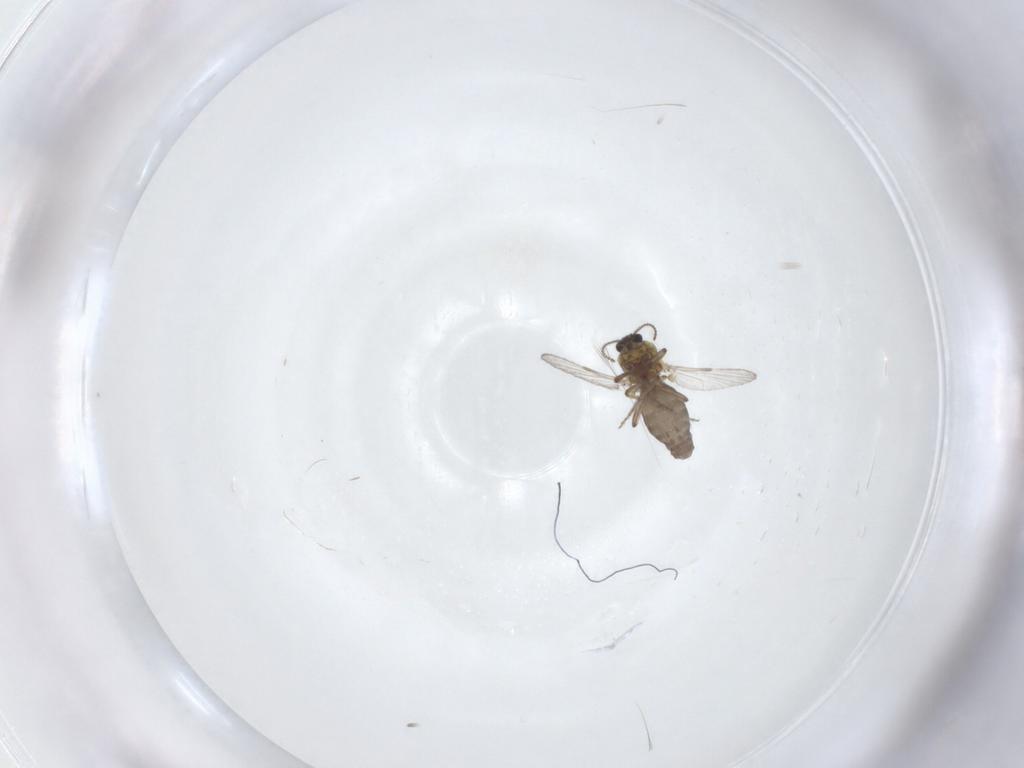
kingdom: Animalia
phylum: Arthropoda
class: Insecta
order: Diptera
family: Ceratopogonidae
